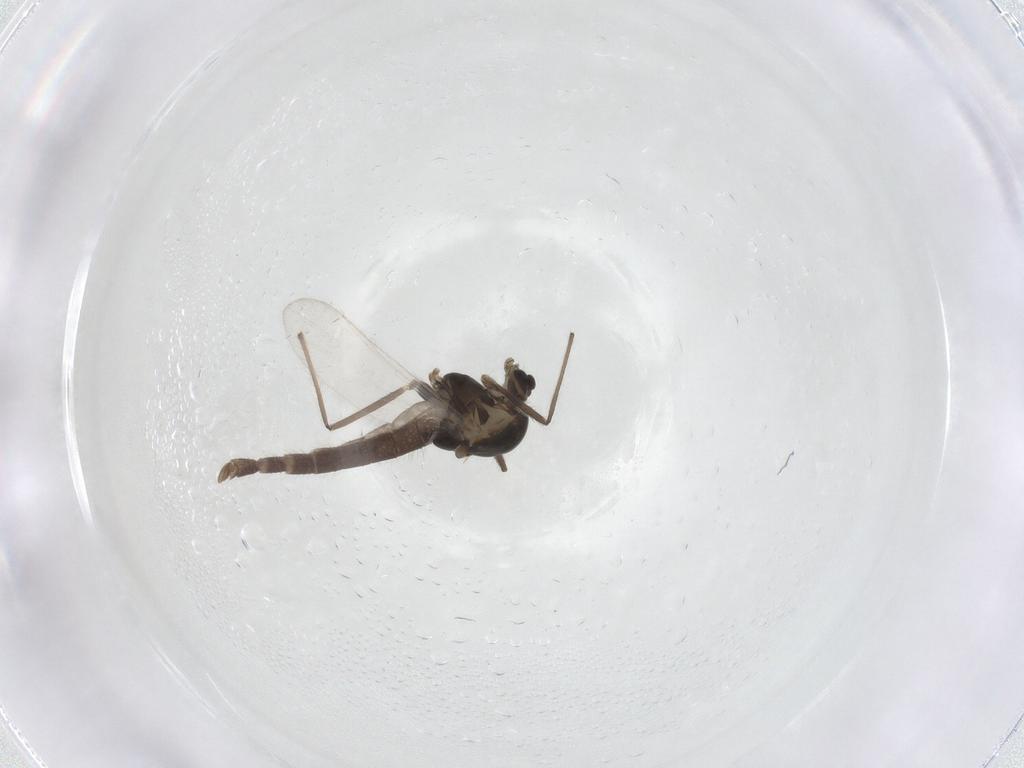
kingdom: Animalia
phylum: Arthropoda
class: Insecta
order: Diptera
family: Chironomidae
